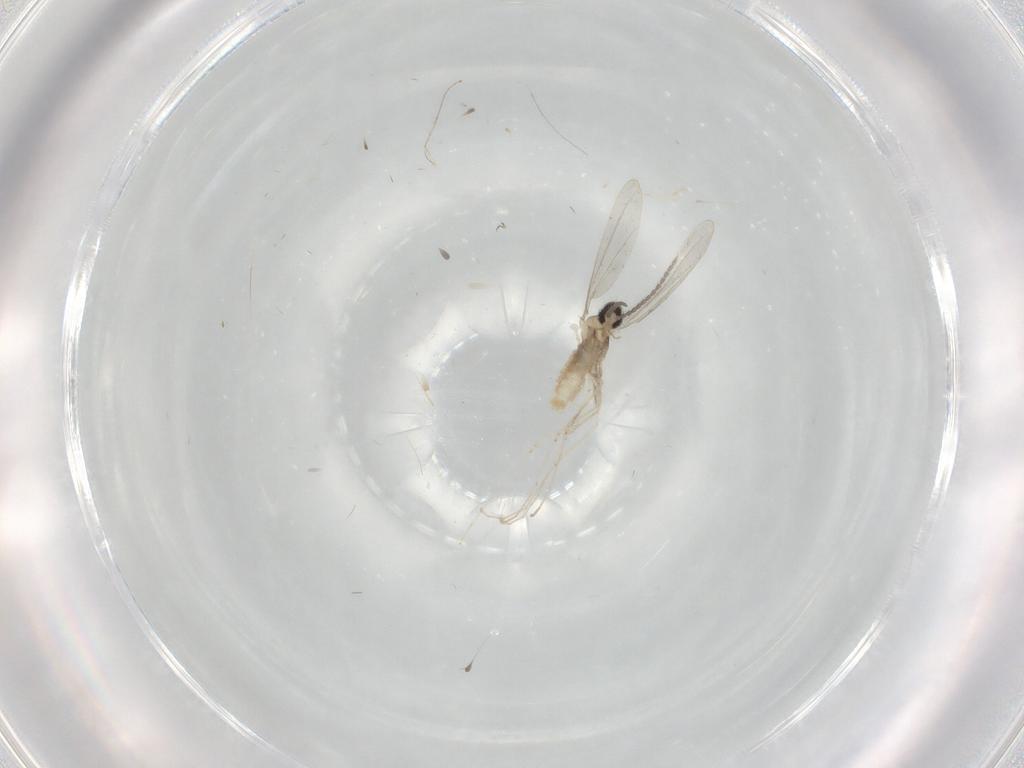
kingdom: Animalia
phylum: Arthropoda
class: Insecta
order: Diptera
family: Cecidomyiidae
